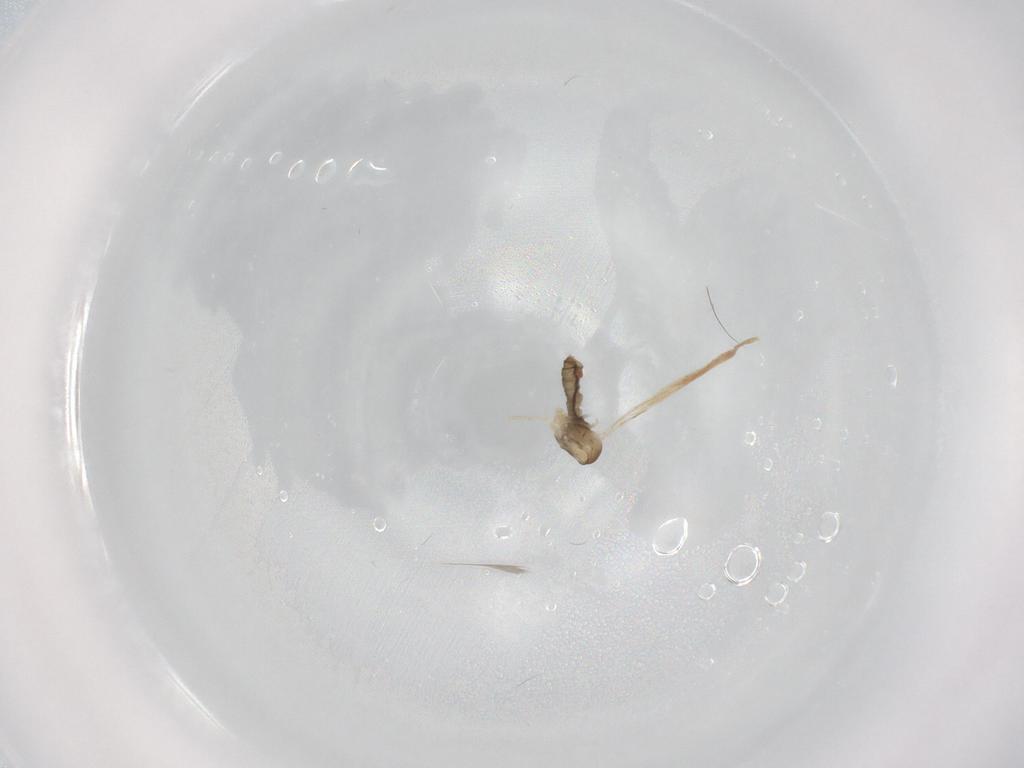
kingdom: Animalia
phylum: Arthropoda
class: Insecta
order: Diptera
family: Cecidomyiidae
